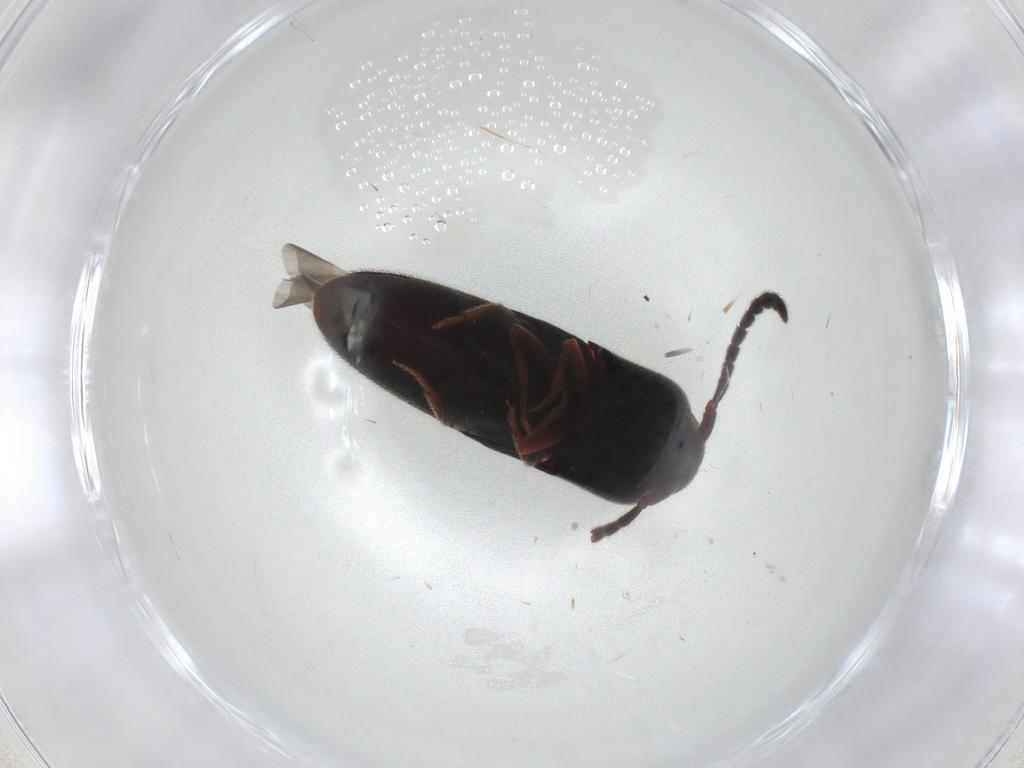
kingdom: Animalia
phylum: Arthropoda
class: Insecta
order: Coleoptera
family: Eucnemidae
